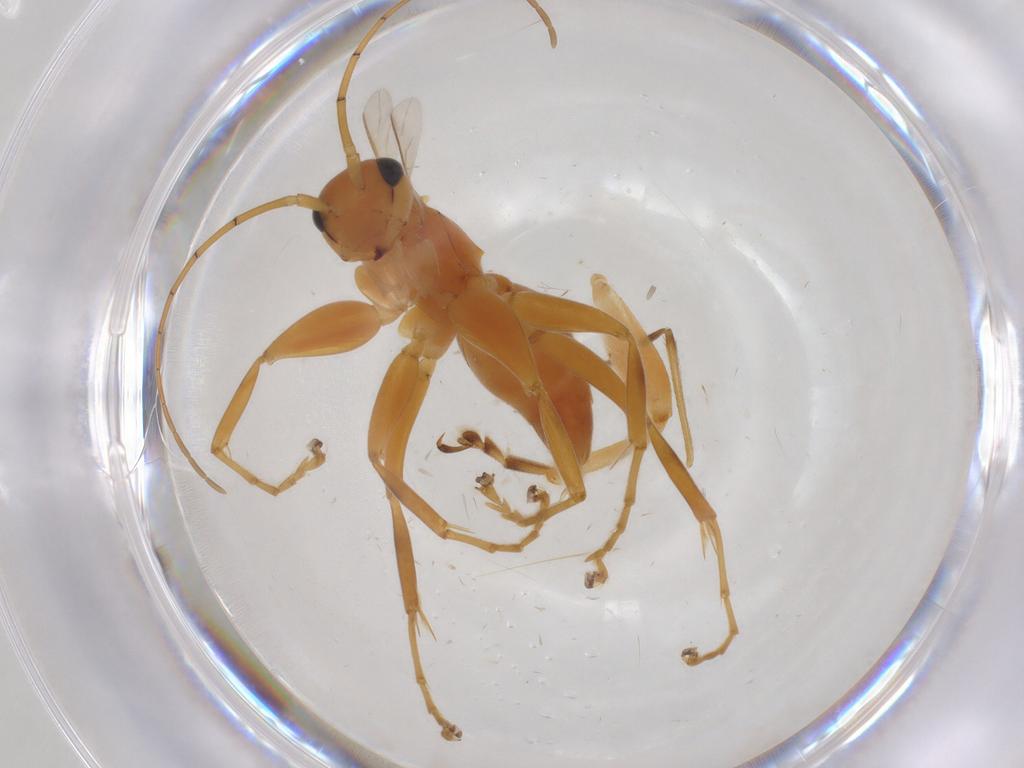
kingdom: Animalia
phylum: Arthropoda
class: Insecta
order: Hymenoptera
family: Rhopalosomatidae
